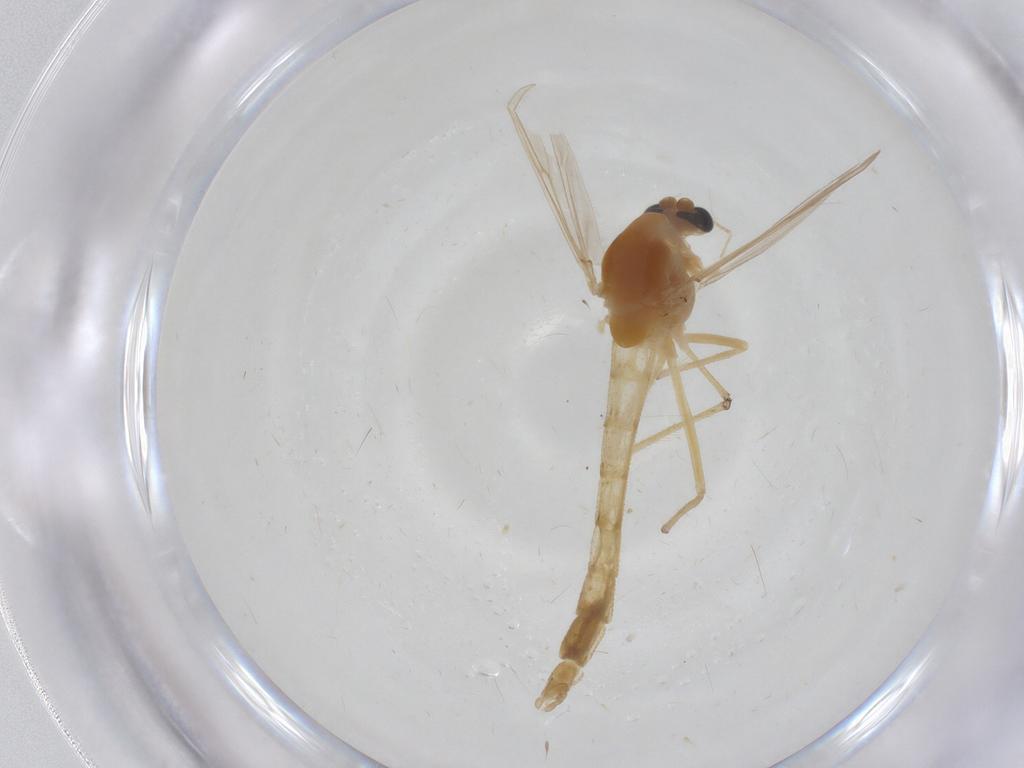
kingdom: Animalia
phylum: Arthropoda
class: Insecta
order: Diptera
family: Chironomidae
